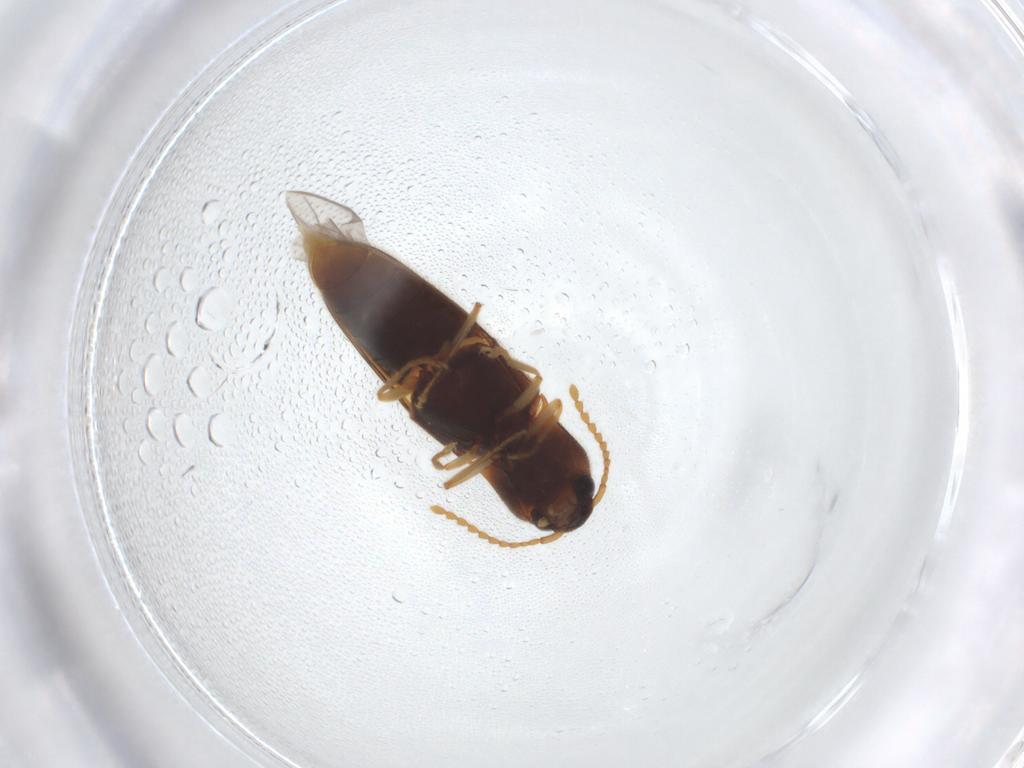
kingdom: Animalia
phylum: Arthropoda
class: Insecta
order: Coleoptera
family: Elateridae
